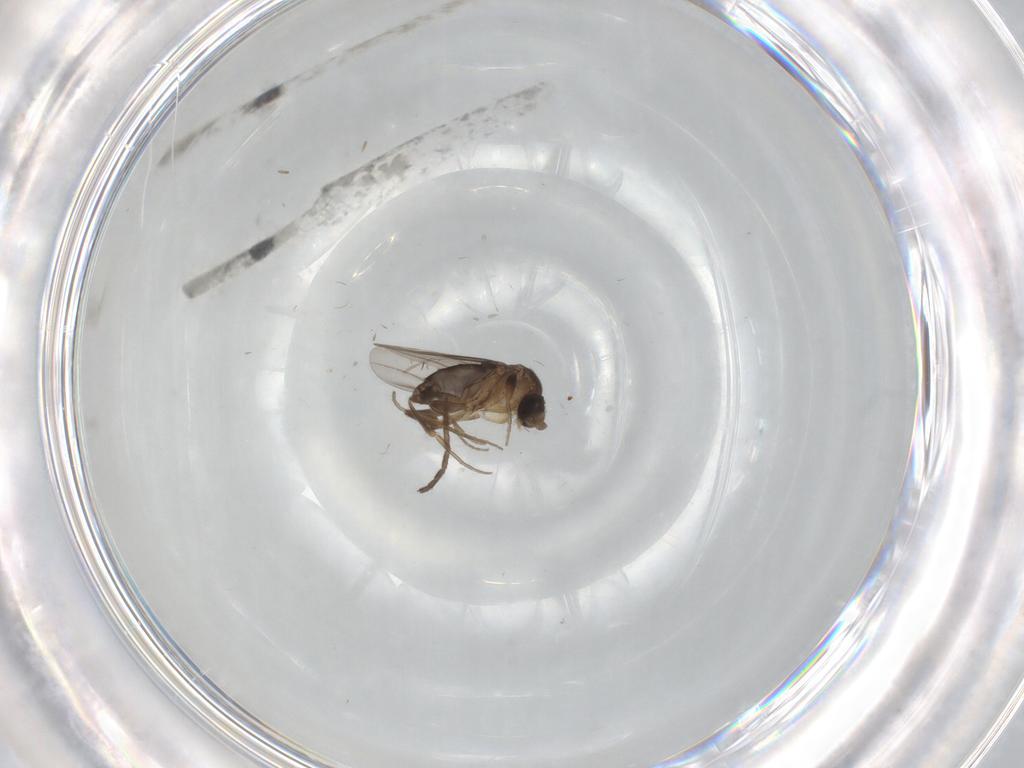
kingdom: Animalia
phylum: Arthropoda
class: Insecta
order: Diptera
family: Phoridae
